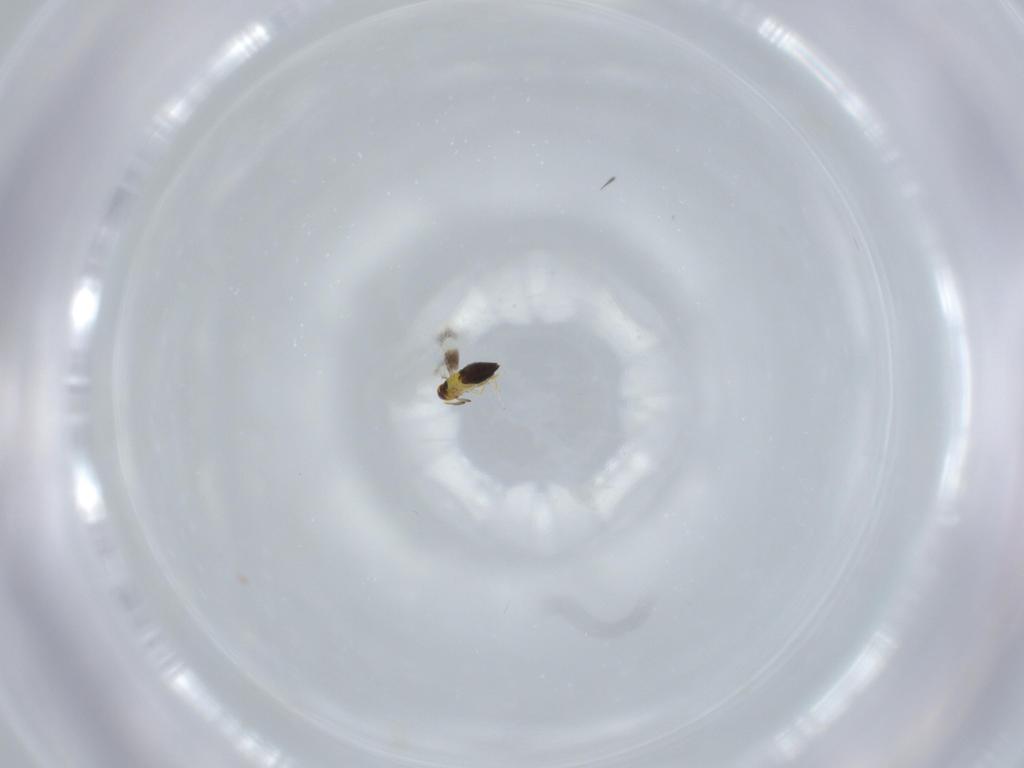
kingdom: Animalia
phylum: Arthropoda
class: Insecta
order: Hymenoptera
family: Signiphoridae
